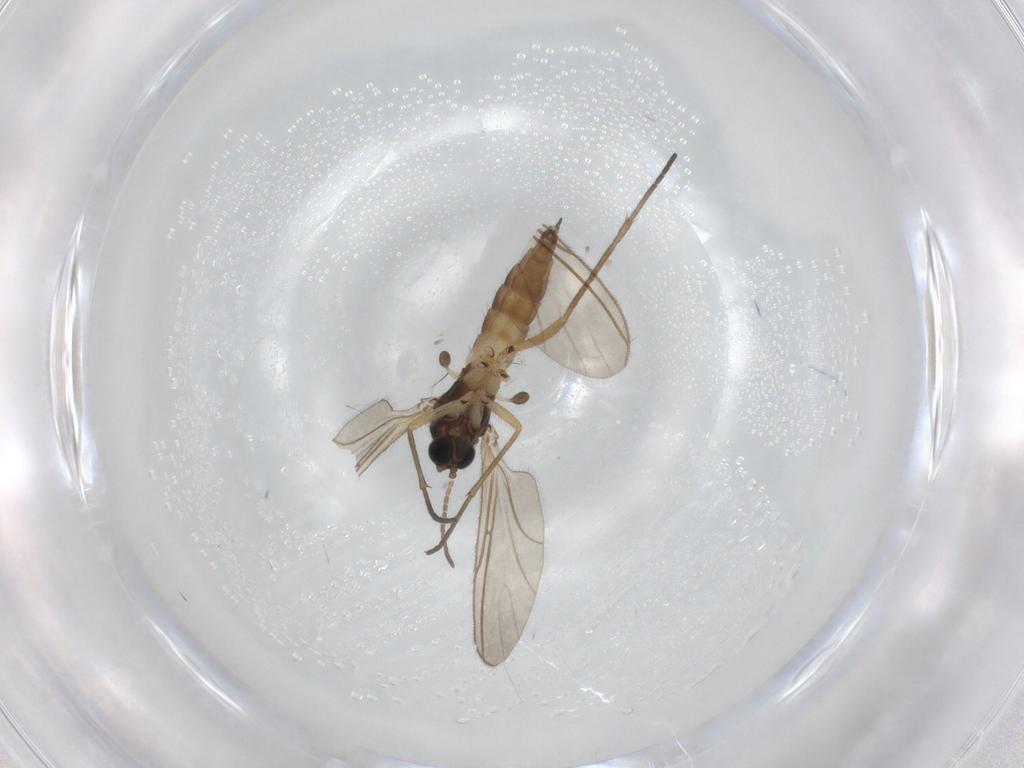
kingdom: Animalia
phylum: Arthropoda
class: Insecta
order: Diptera
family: Sciaridae
